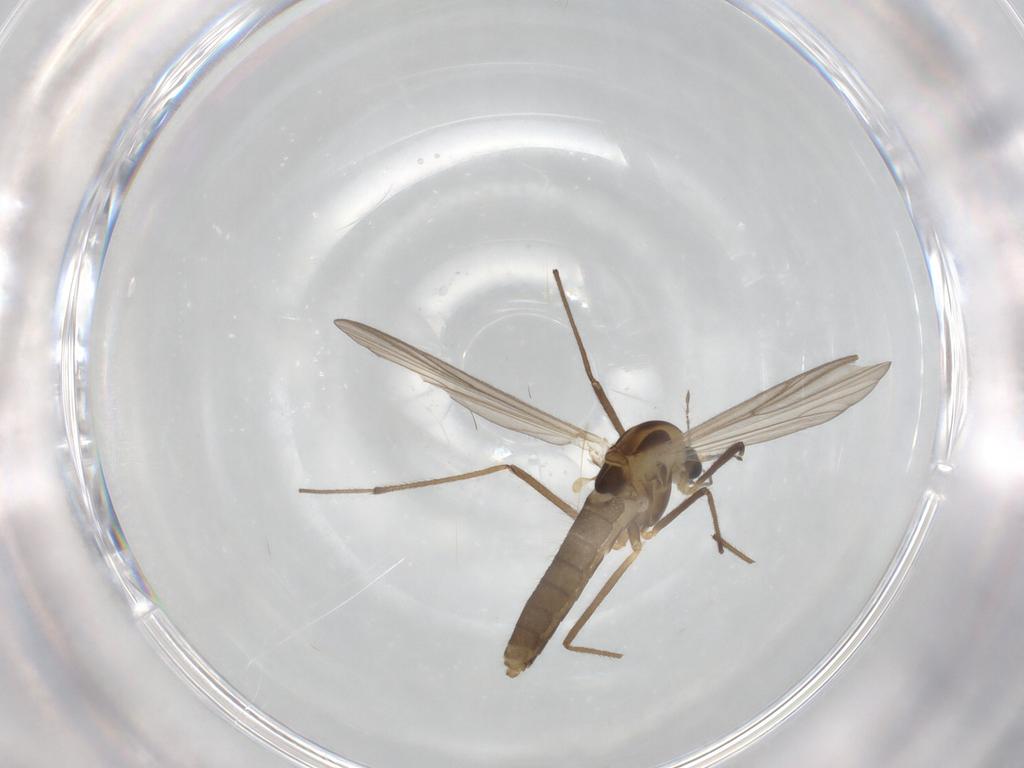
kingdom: Animalia
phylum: Arthropoda
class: Insecta
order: Diptera
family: Chironomidae
